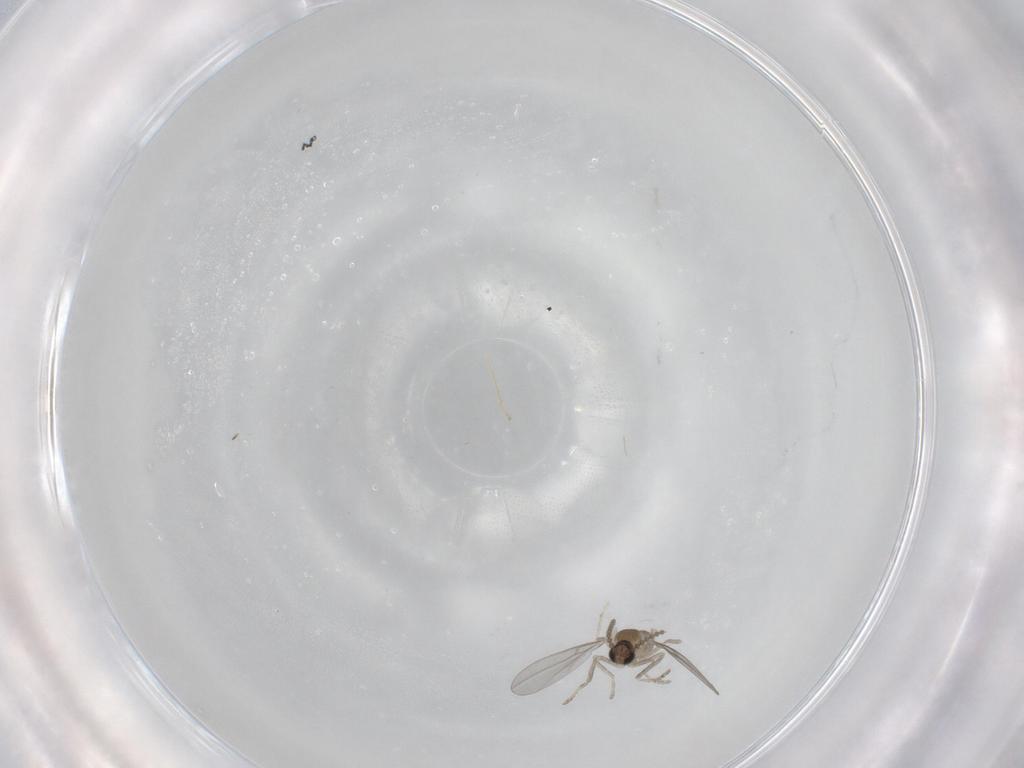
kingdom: Animalia
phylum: Arthropoda
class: Insecta
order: Diptera
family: Cecidomyiidae
